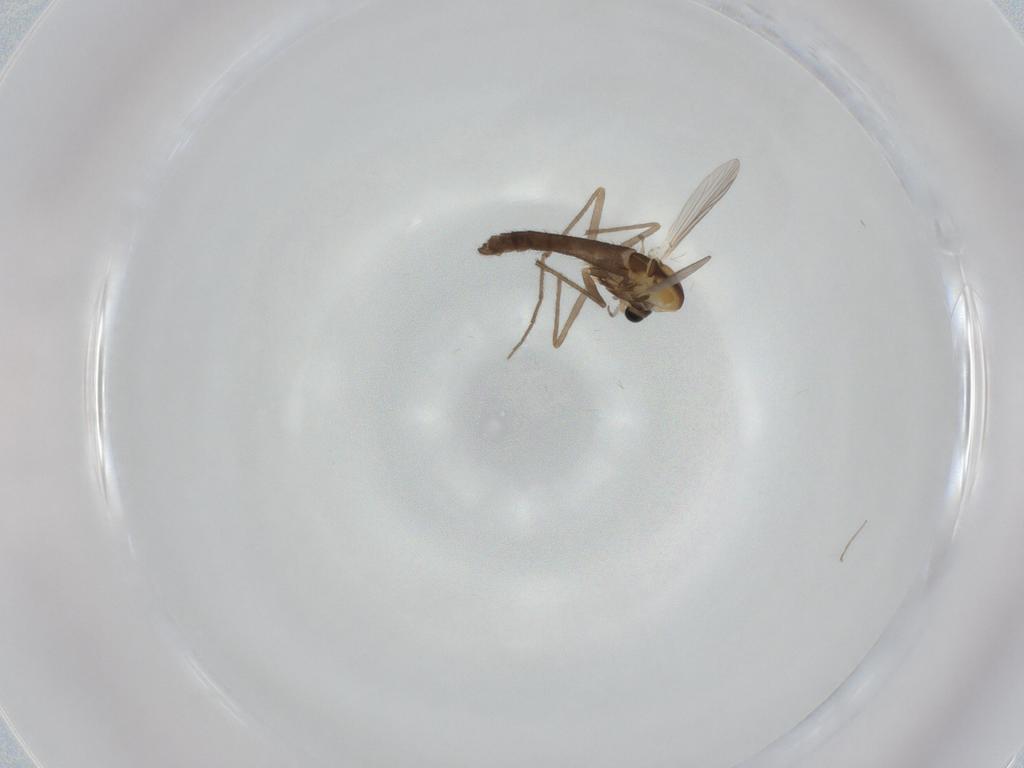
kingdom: Animalia
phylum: Arthropoda
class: Insecta
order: Diptera
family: Chironomidae
